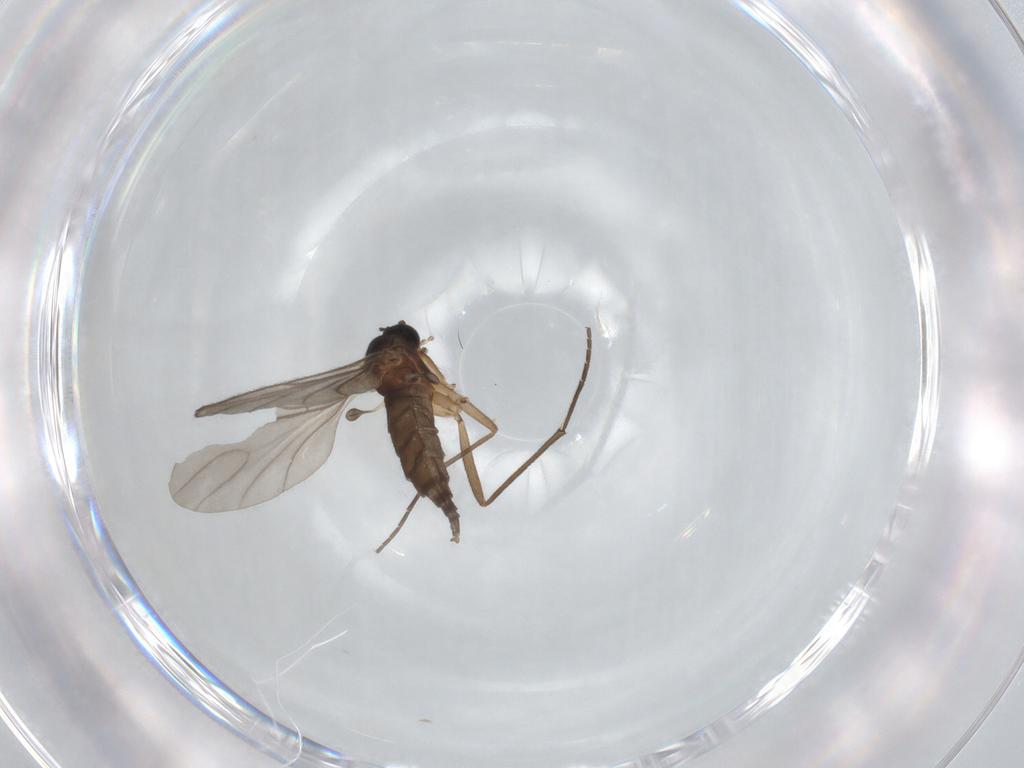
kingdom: Animalia
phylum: Arthropoda
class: Insecta
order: Diptera
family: Sciaridae
